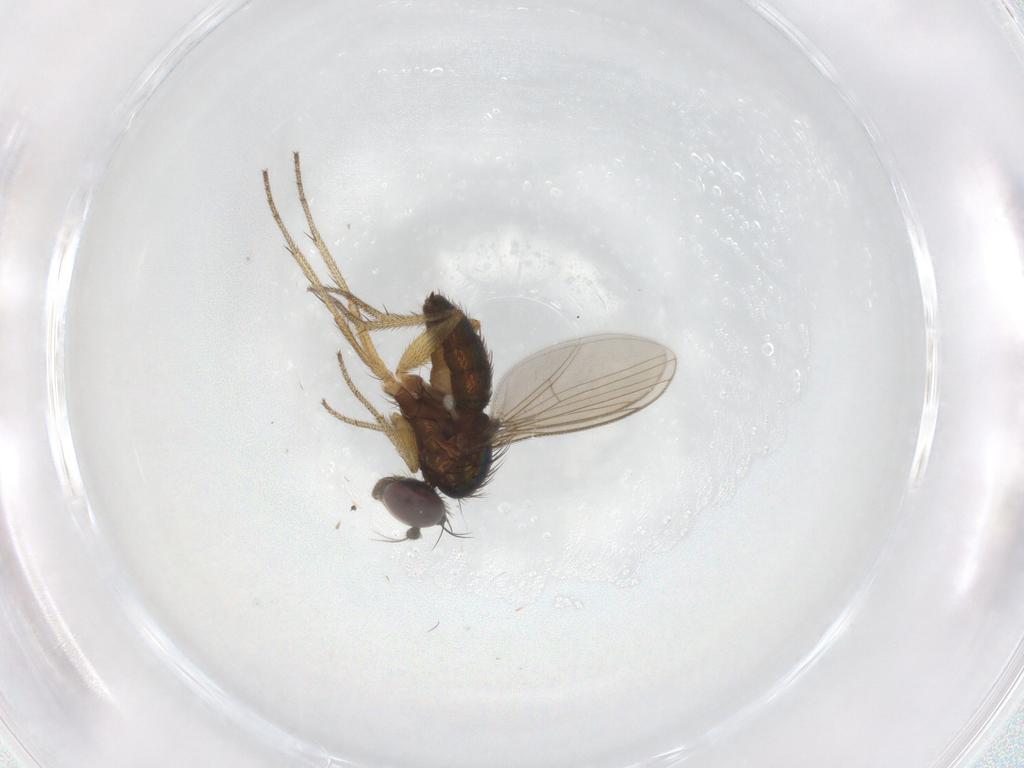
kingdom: Animalia
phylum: Arthropoda
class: Insecta
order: Diptera
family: Dolichopodidae
